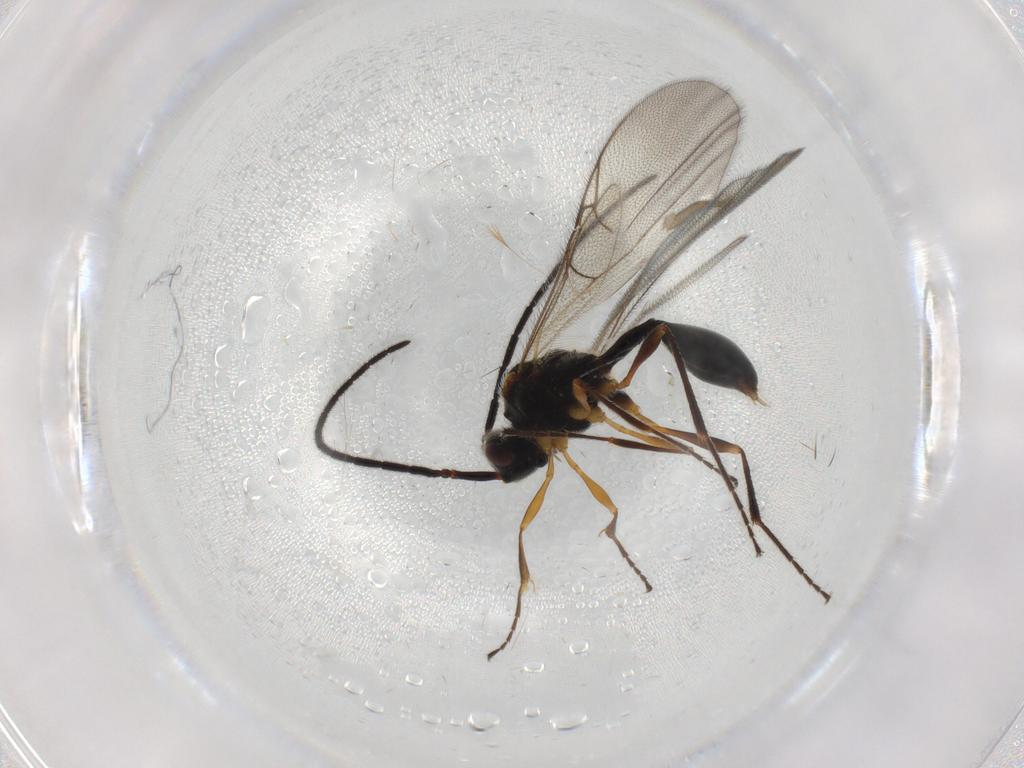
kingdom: Animalia
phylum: Arthropoda
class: Insecta
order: Hymenoptera
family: Diapriidae
